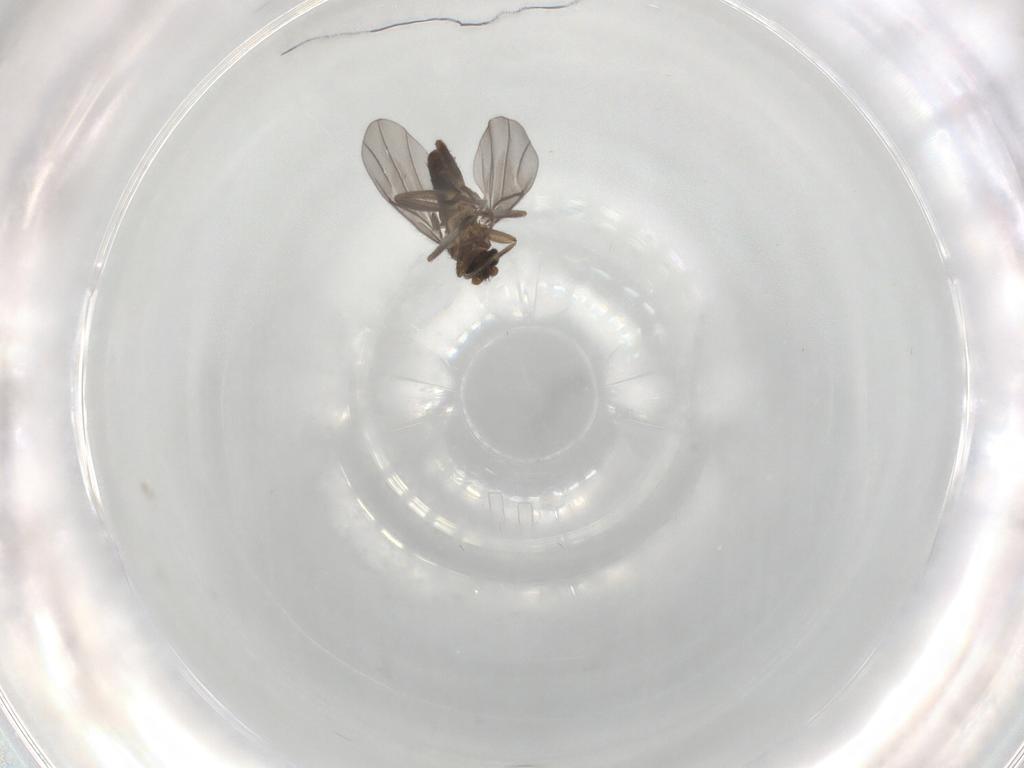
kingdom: Animalia
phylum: Arthropoda
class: Insecta
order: Diptera
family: Phoridae
